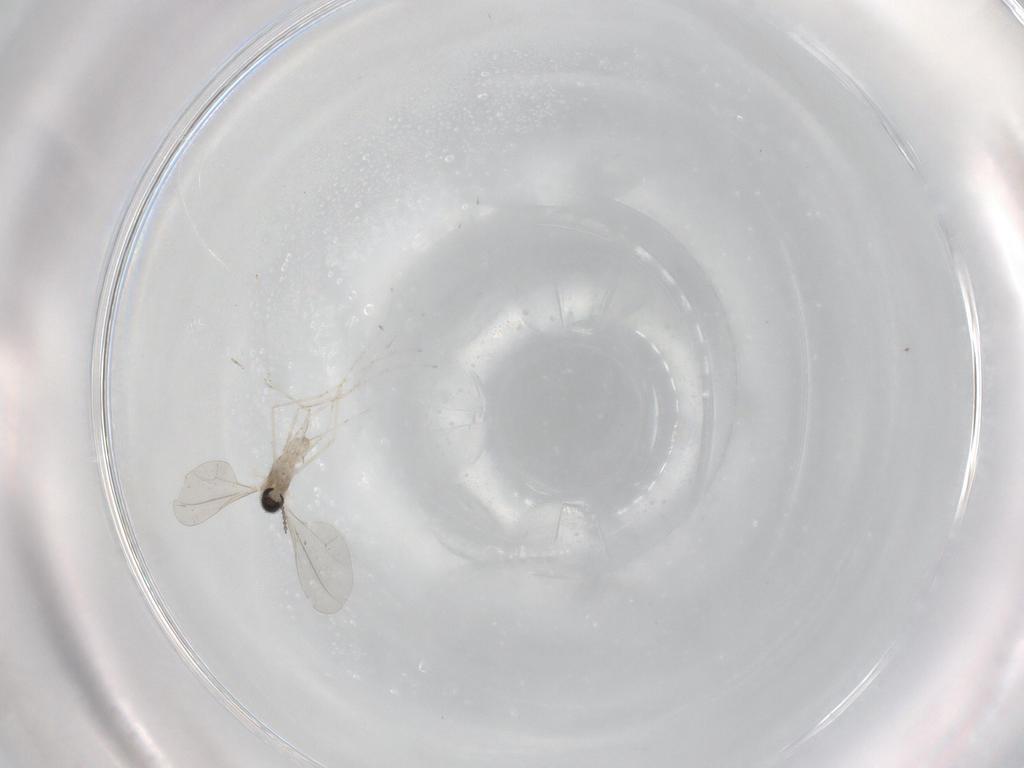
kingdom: Animalia
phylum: Arthropoda
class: Insecta
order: Diptera
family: Sciaridae
